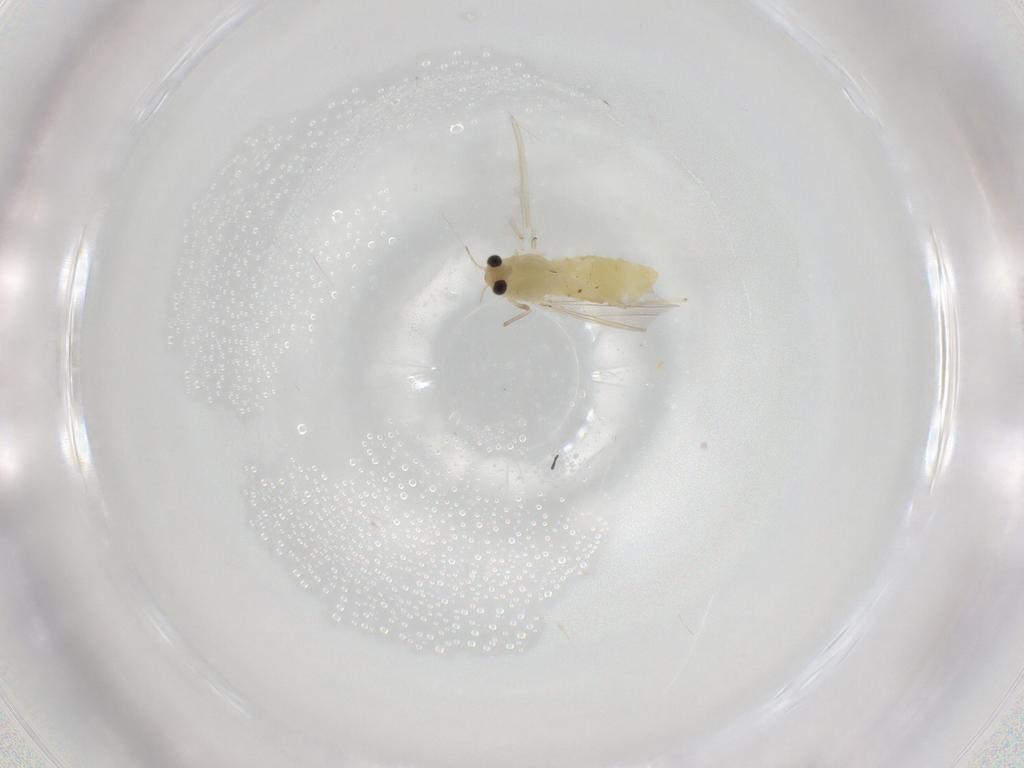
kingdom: Animalia
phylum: Arthropoda
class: Insecta
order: Diptera
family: Chironomidae
